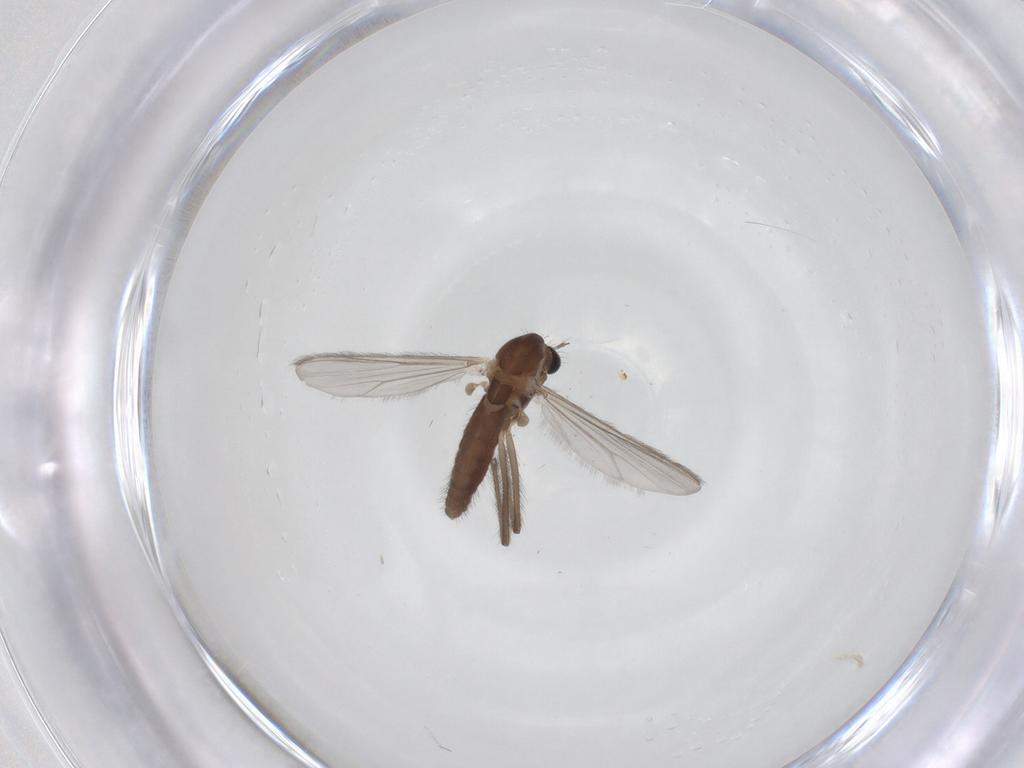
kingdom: Animalia
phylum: Arthropoda
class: Insecta
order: Diptera
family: Chironomidae
